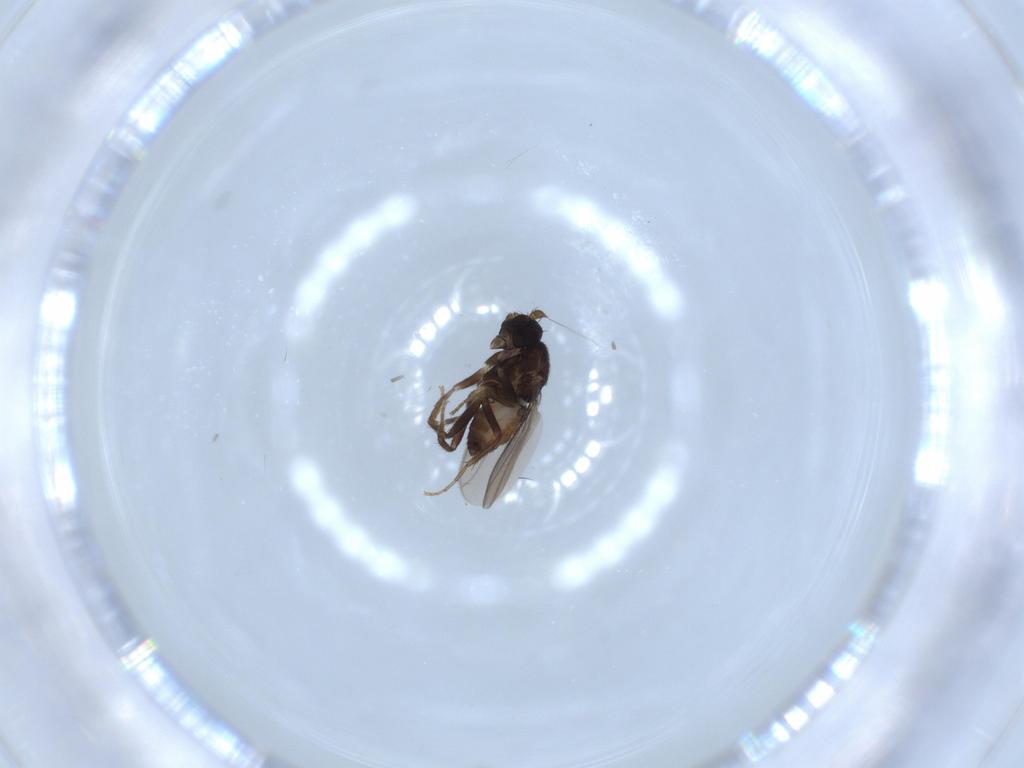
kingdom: Animalia
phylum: Arthropoda
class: Insecta
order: Diptera
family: Sphaeroceridae
